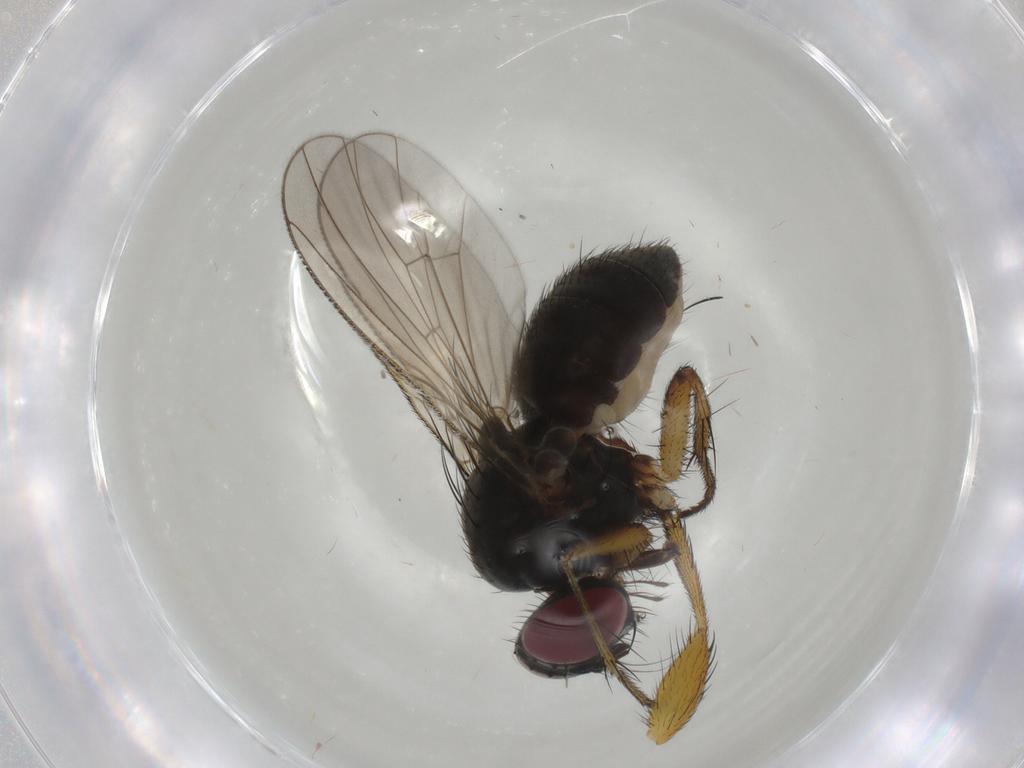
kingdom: Animalia
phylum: Arthropoda
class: Insecta
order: Diptera
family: Muscidae
